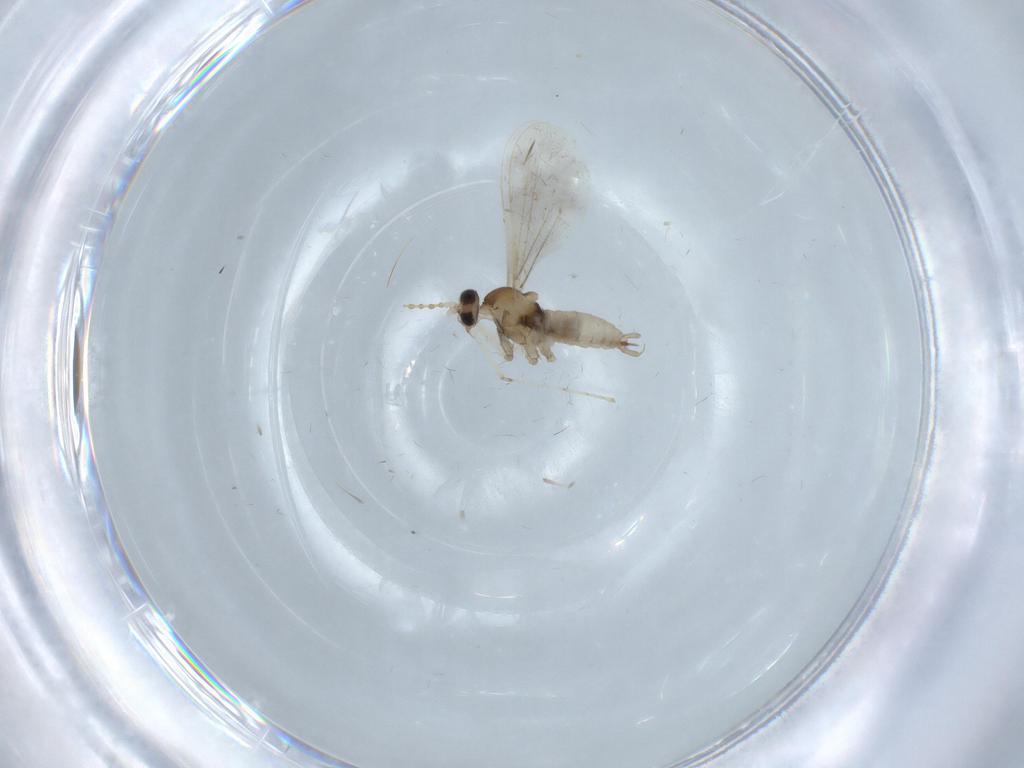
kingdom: Animalia
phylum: Arthropoda
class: Insecta
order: Diptera
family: Cecidomyiidae
